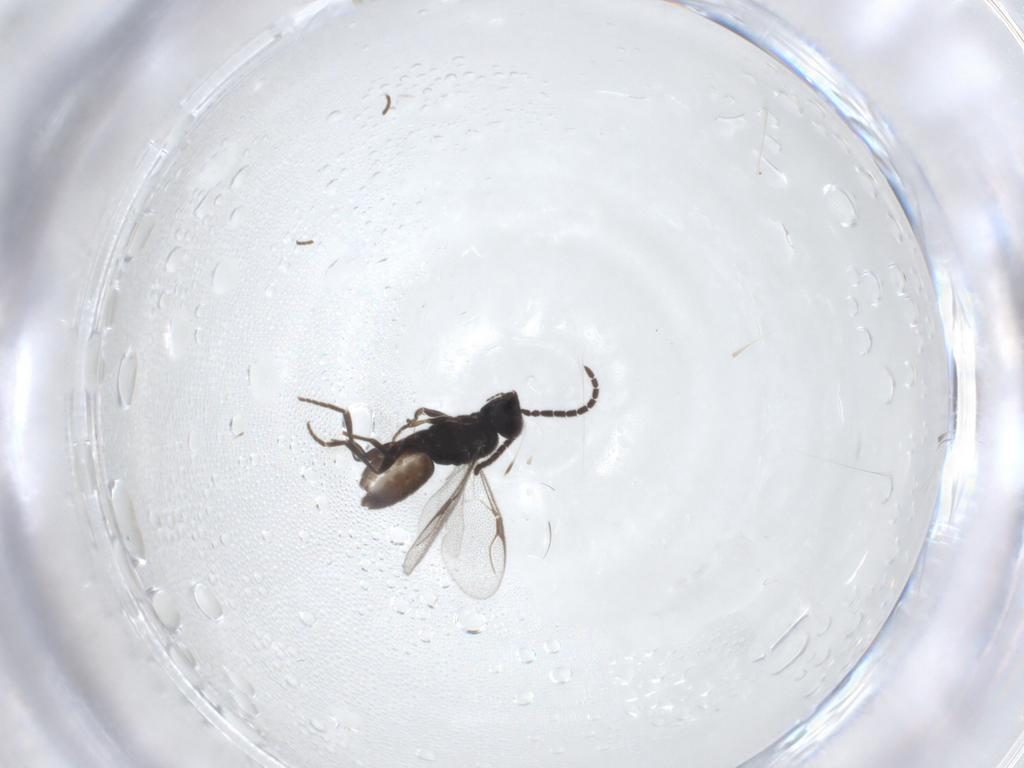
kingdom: Animalia
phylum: Arthropoda
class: Insecta
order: Hymenoptera
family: Dryinidae
